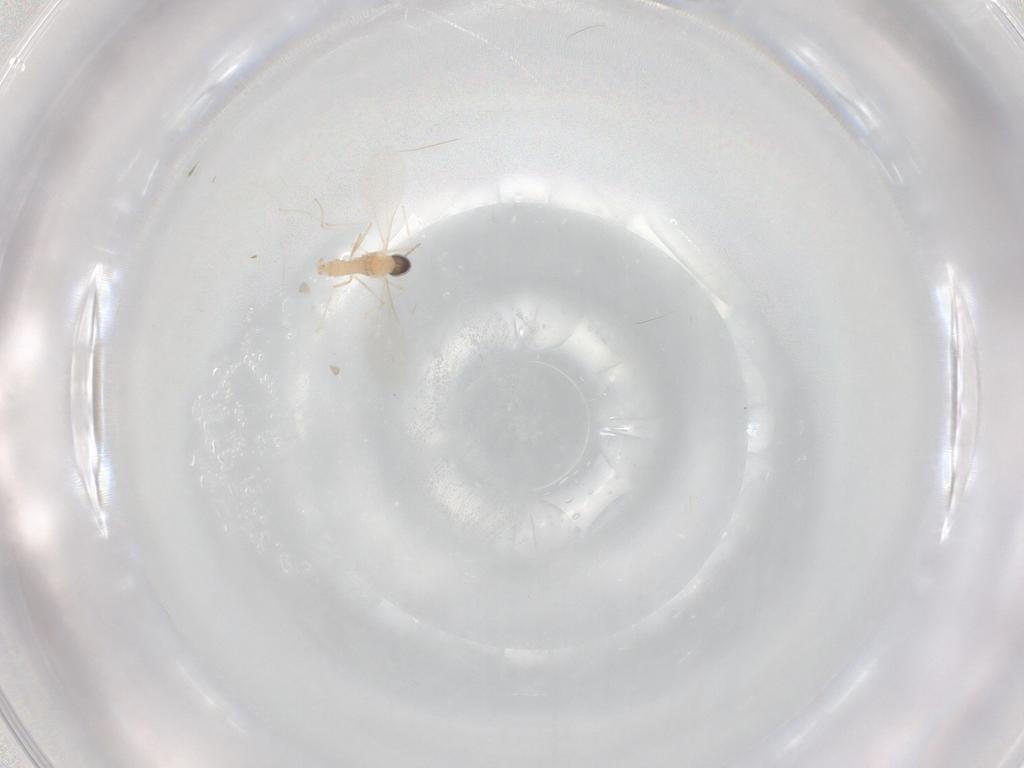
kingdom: Animalia
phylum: Arthropoda
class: Insecta
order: Diptera
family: Cecidomyiidae
